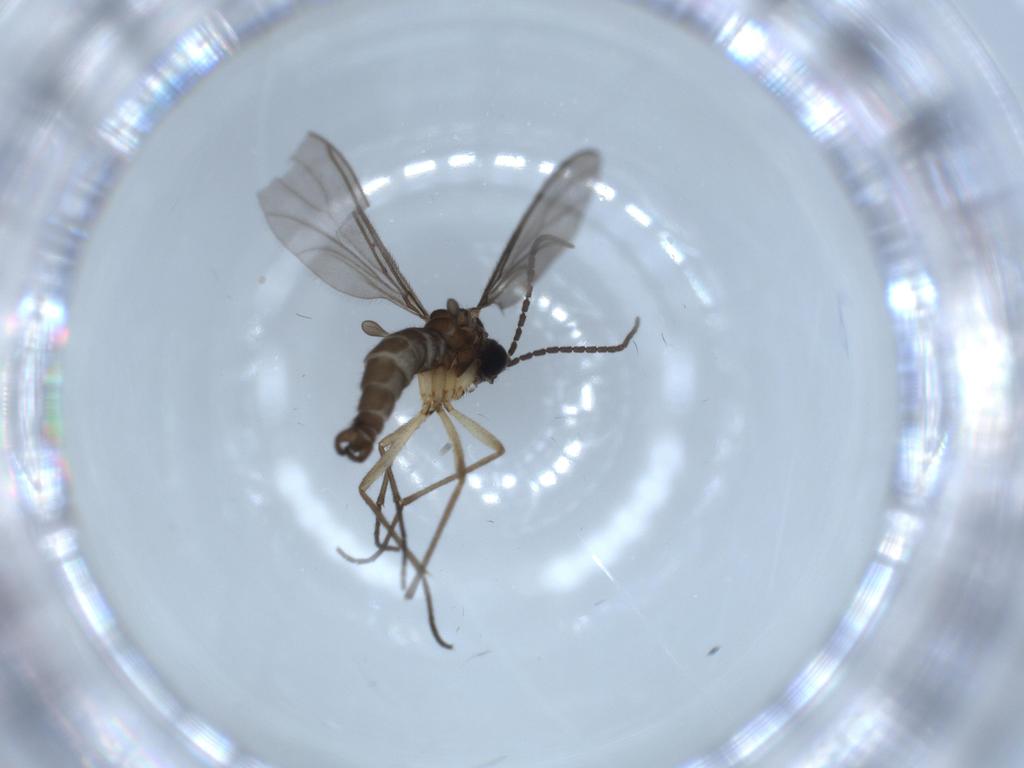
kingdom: Animalia
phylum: Arthropoda
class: Insecta
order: Diptera
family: Sciaridae
